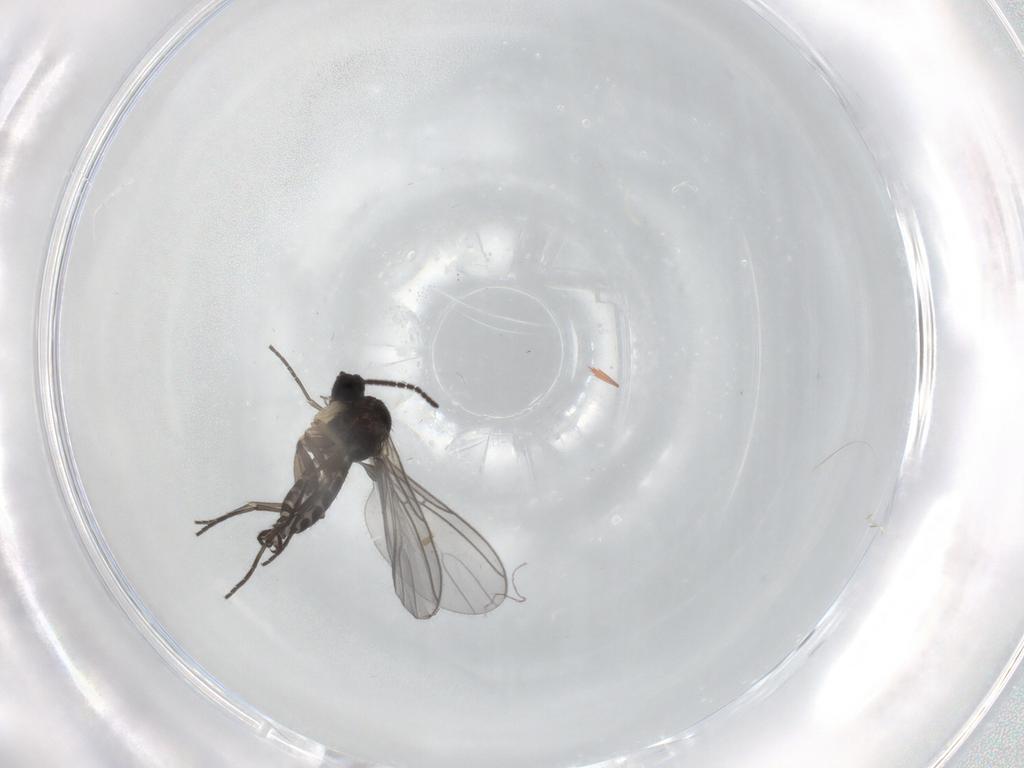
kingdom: Animalia
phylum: Arthropoda
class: Insecta
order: Diptera
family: Sciaridae
